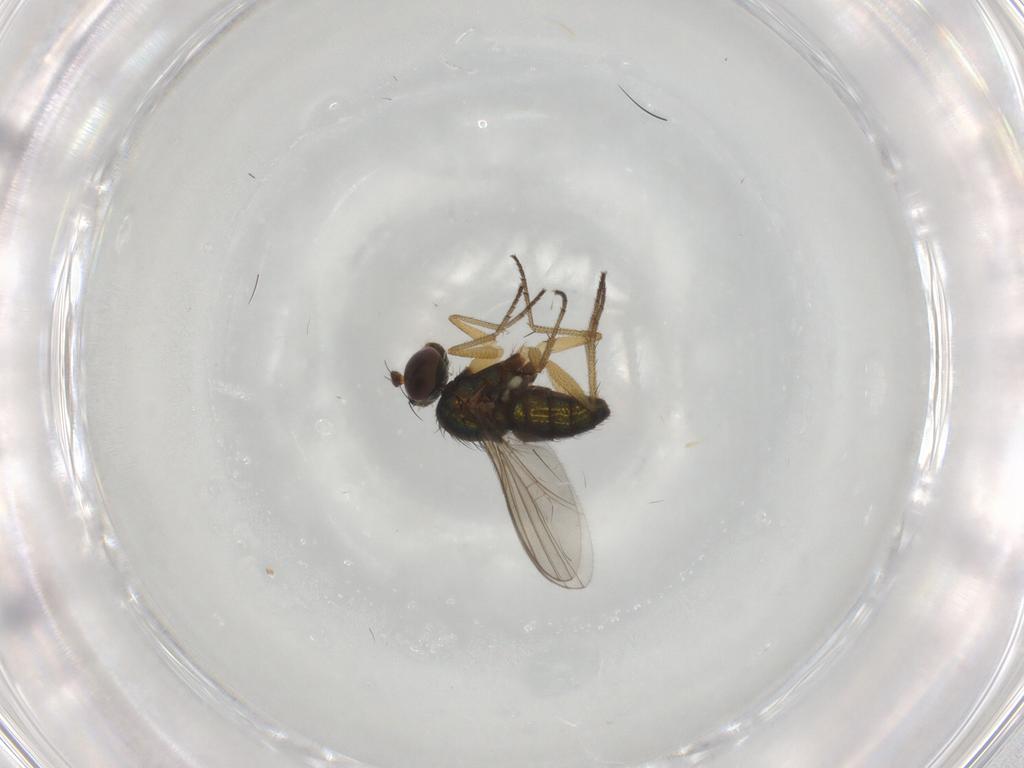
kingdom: Animalia
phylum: Arthropoda
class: Insecta
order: Diptera
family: Dolichopodidae
